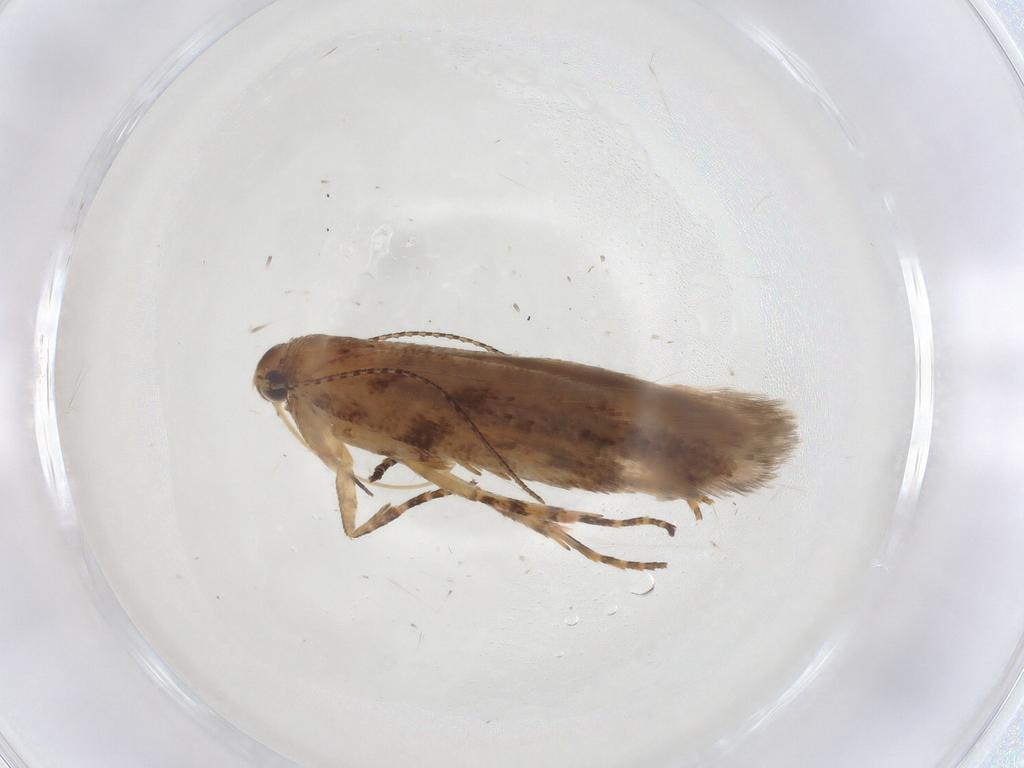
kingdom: Animalia
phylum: Arthropoda
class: Insecta
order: Lepidoptera
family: Gelechiidae
